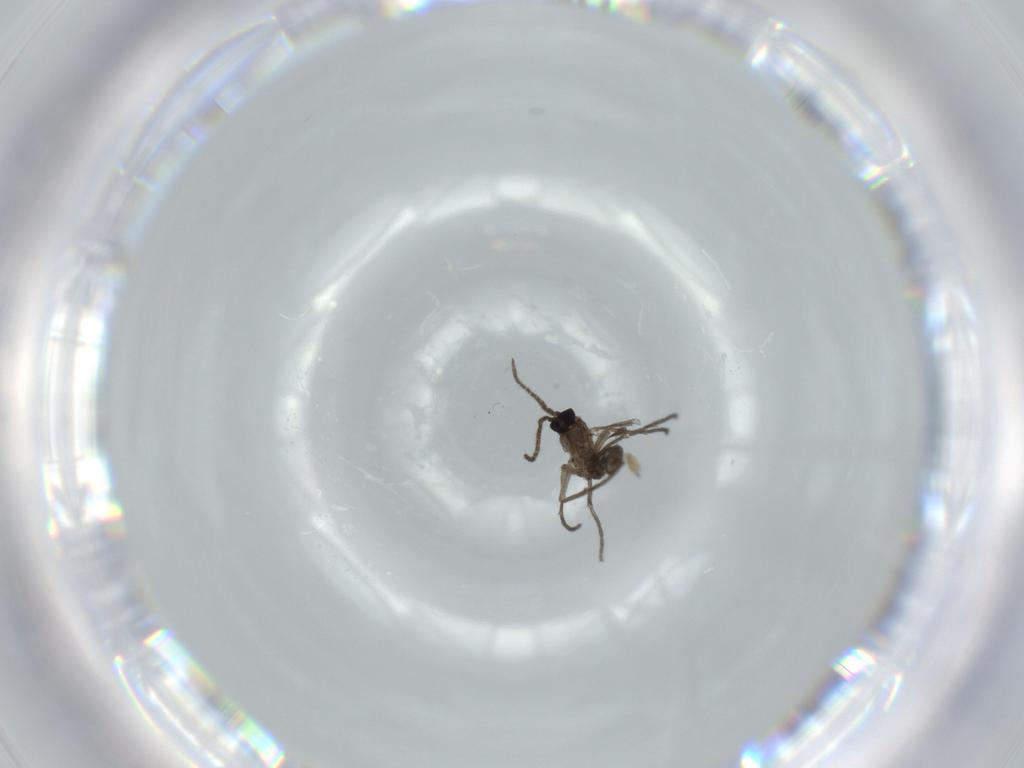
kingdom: Animalia
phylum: Arthropoda
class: Insecta
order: Diptera
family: Sciaridae
